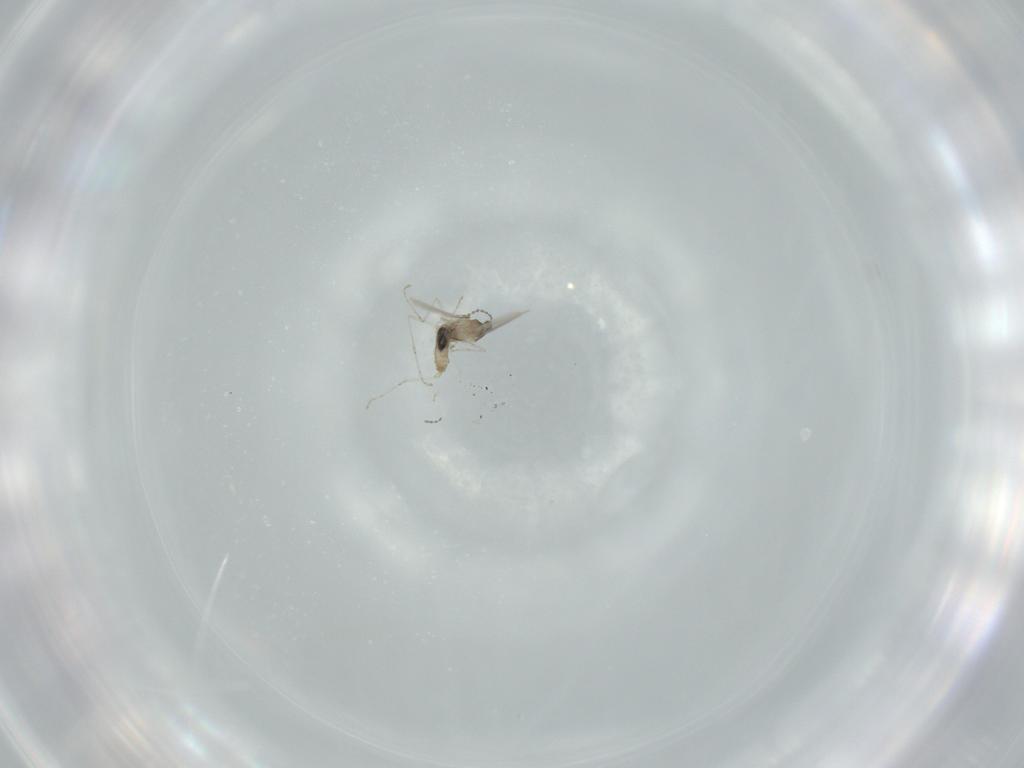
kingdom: Animalia
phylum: Arthropoda
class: Insecta
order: Diptera
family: Cecidomyiidae
